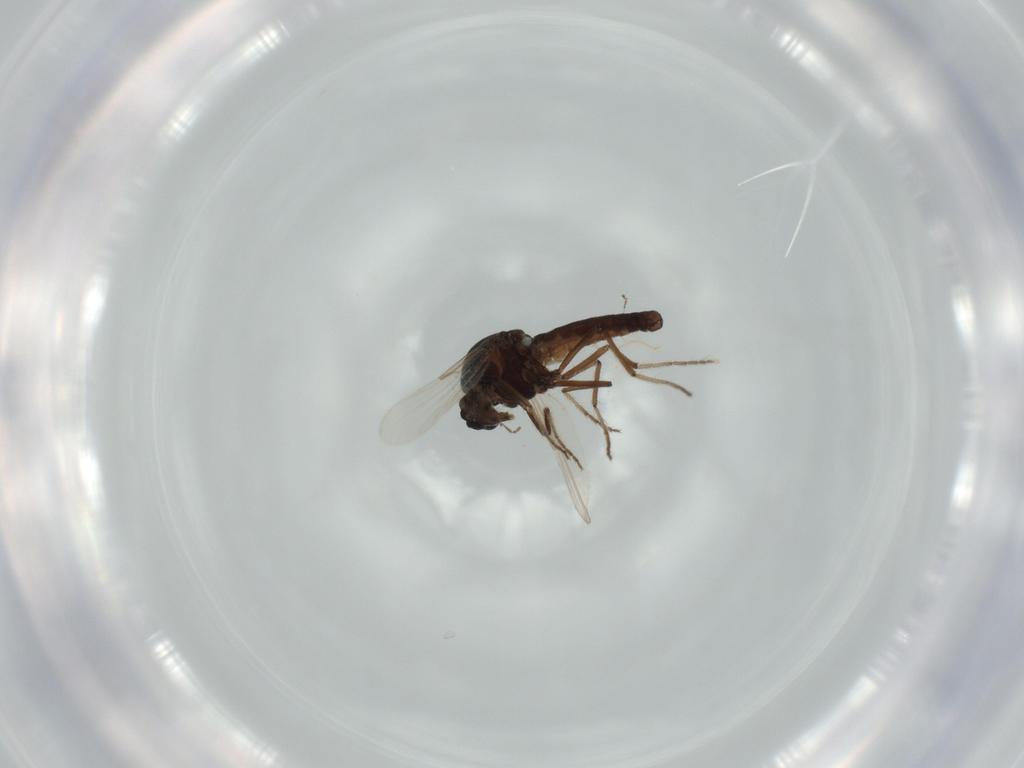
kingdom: Animalia
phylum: Arthropoda
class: Insecta
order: Diptera
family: Ceratopogonidae
